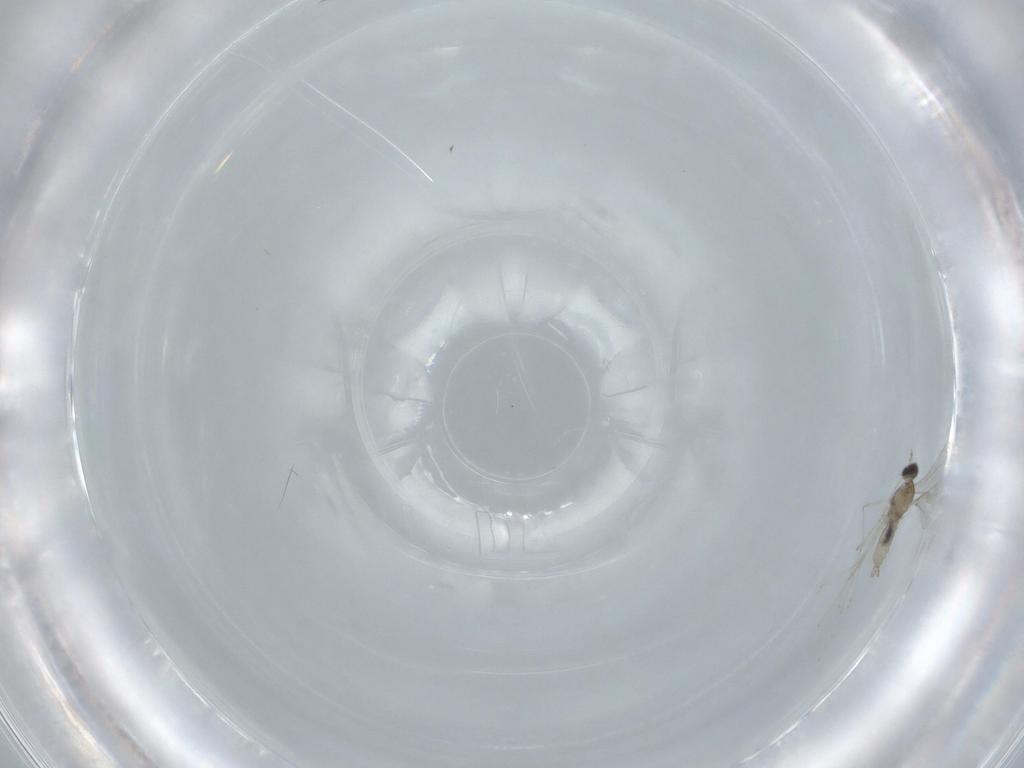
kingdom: Animalia
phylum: Arthropoda
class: Insecta
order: Diptera
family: Cecidomyiidae
